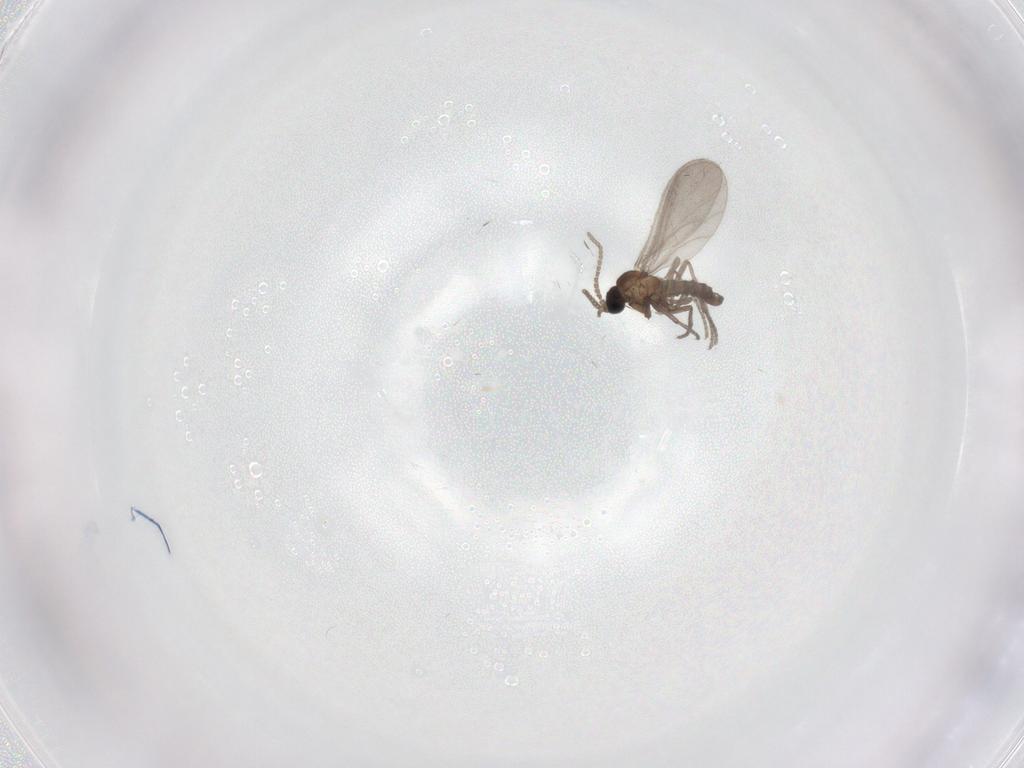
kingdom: Animalia
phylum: Arthropoda
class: Insecta
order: Diptera
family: Sciaridae
